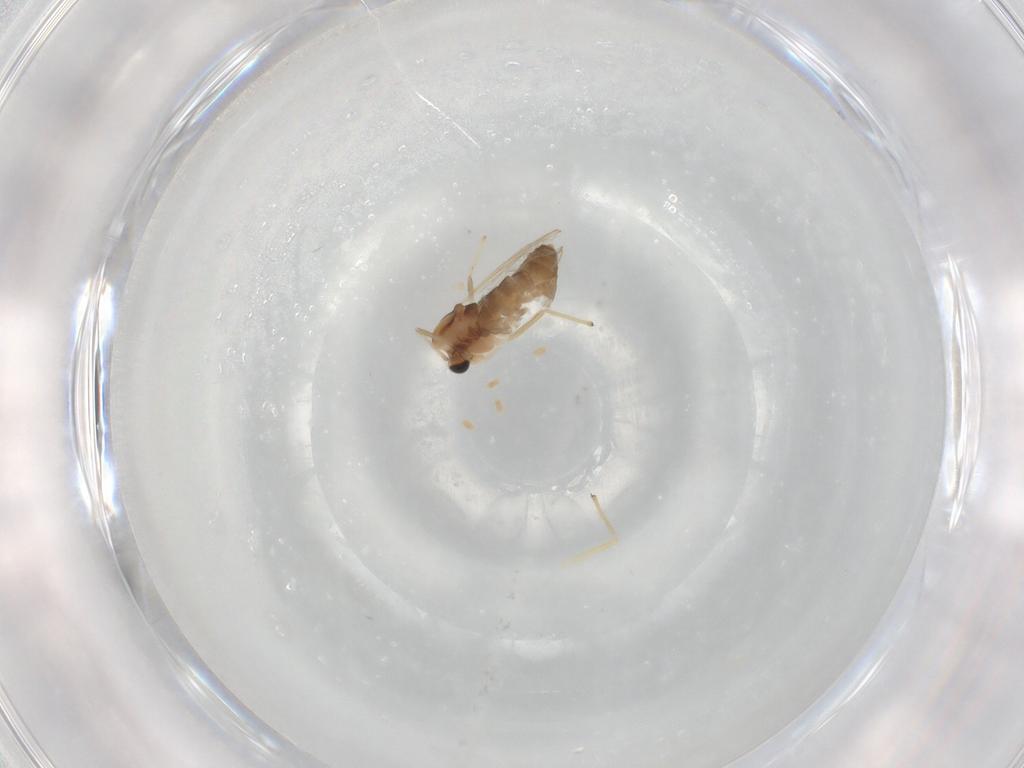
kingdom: Animalia
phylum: Arthropoda
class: Insecta
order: Diptera
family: Chironomidae
